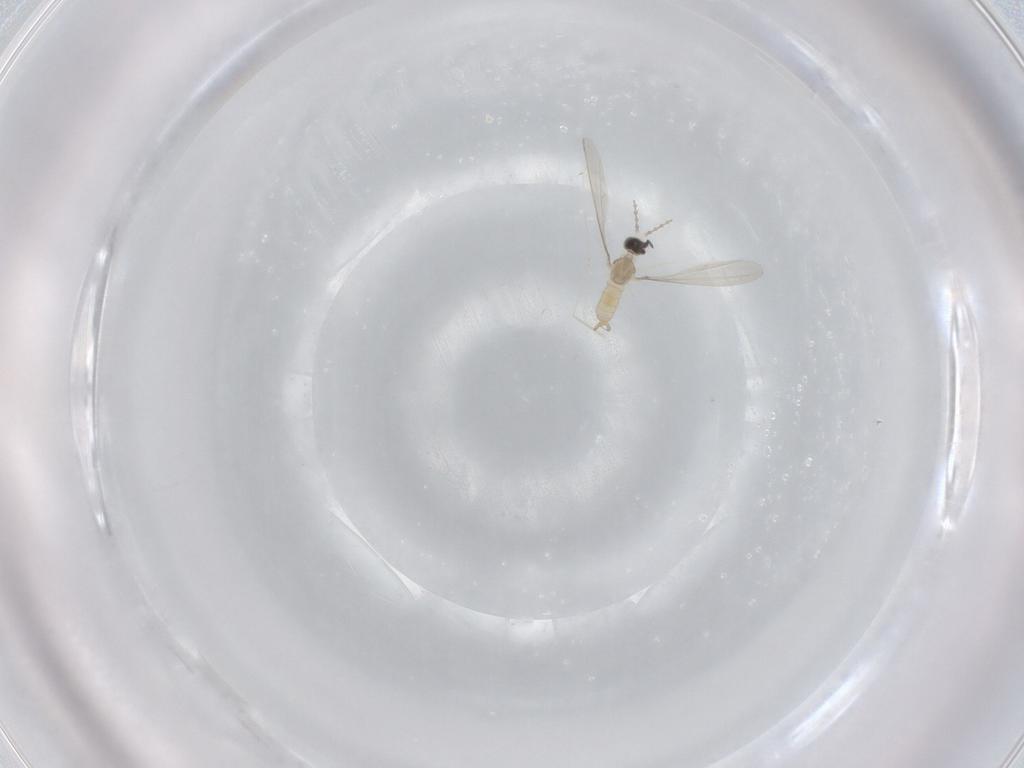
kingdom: Animalia
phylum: Arthropoda
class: Insecta
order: Diptera
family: Cecidomyiidae
